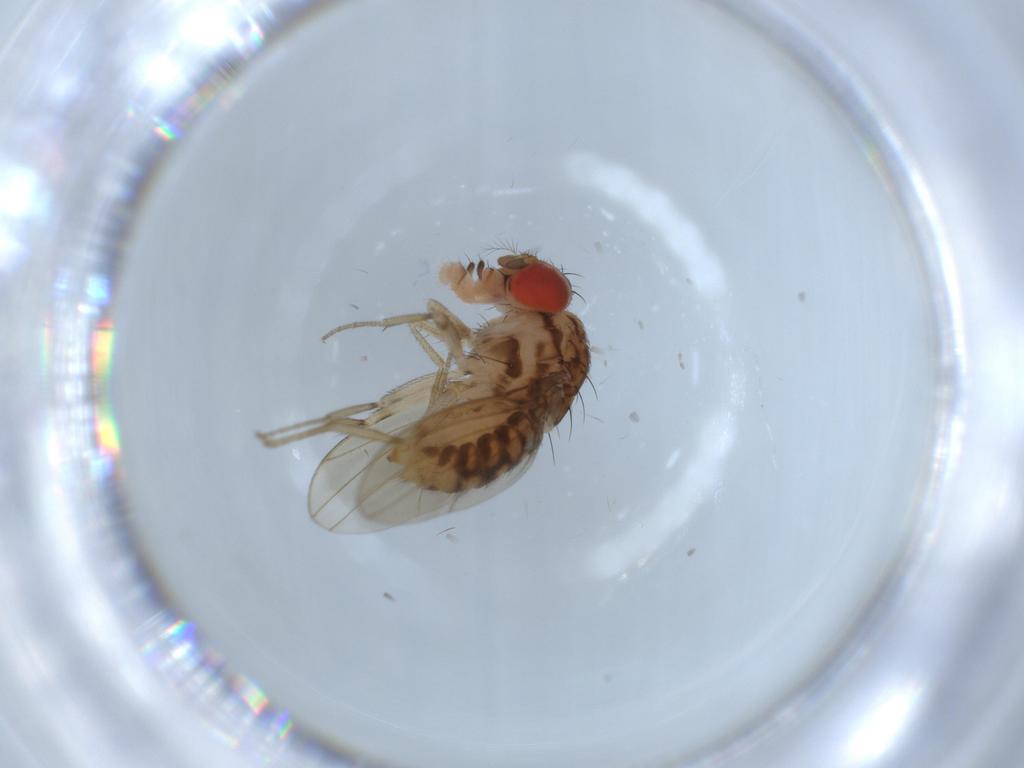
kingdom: Animalia
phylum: Arthropoda
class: Insecta
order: Diptera
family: Drosophilidae
